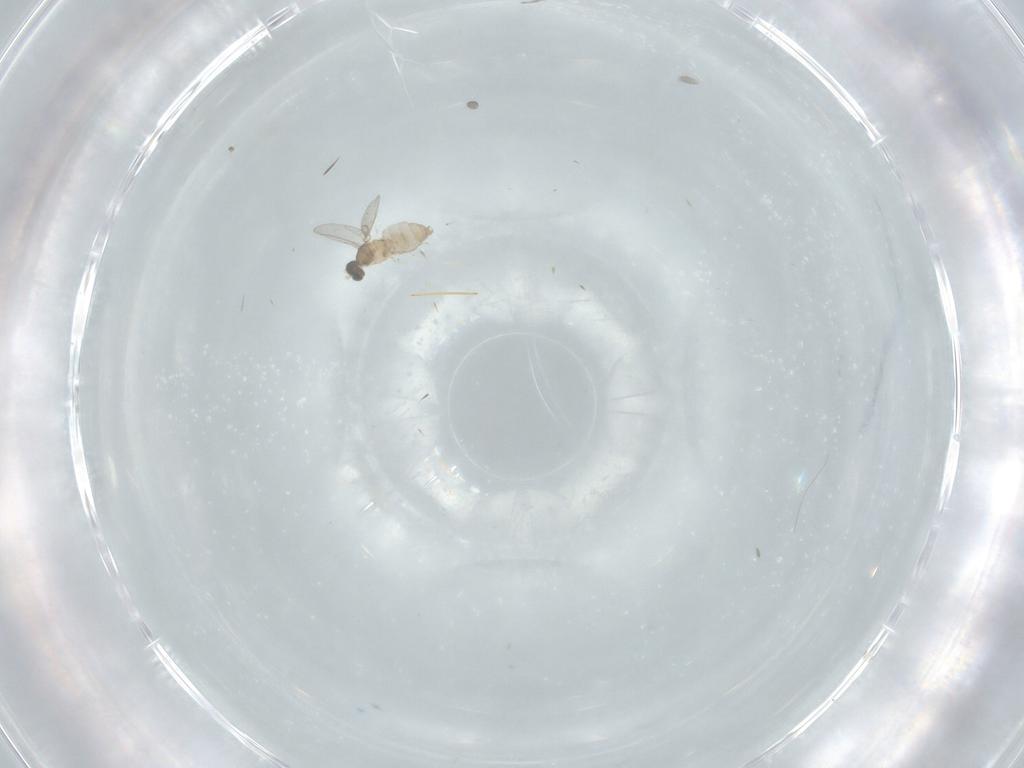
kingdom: Animalia
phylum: Arthropoda
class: Insecta
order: Diptera
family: Cecidomyiidae
